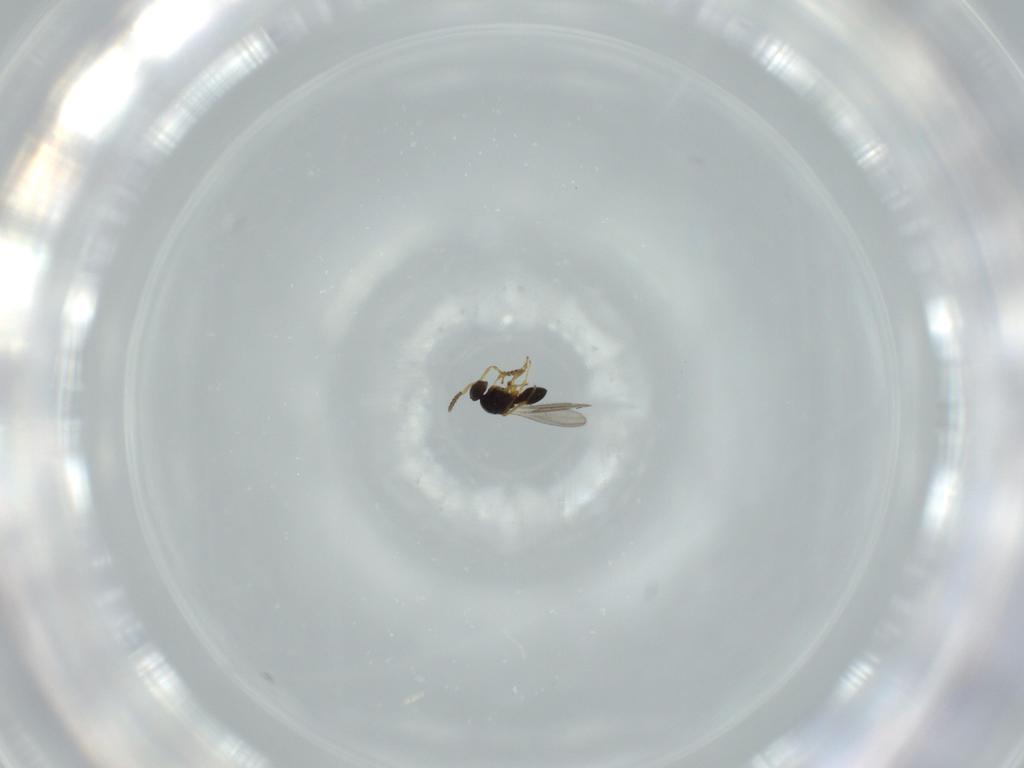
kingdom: Animalia
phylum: Arthropoda
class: Insecta
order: Hymenoptera
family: Platygastridae
